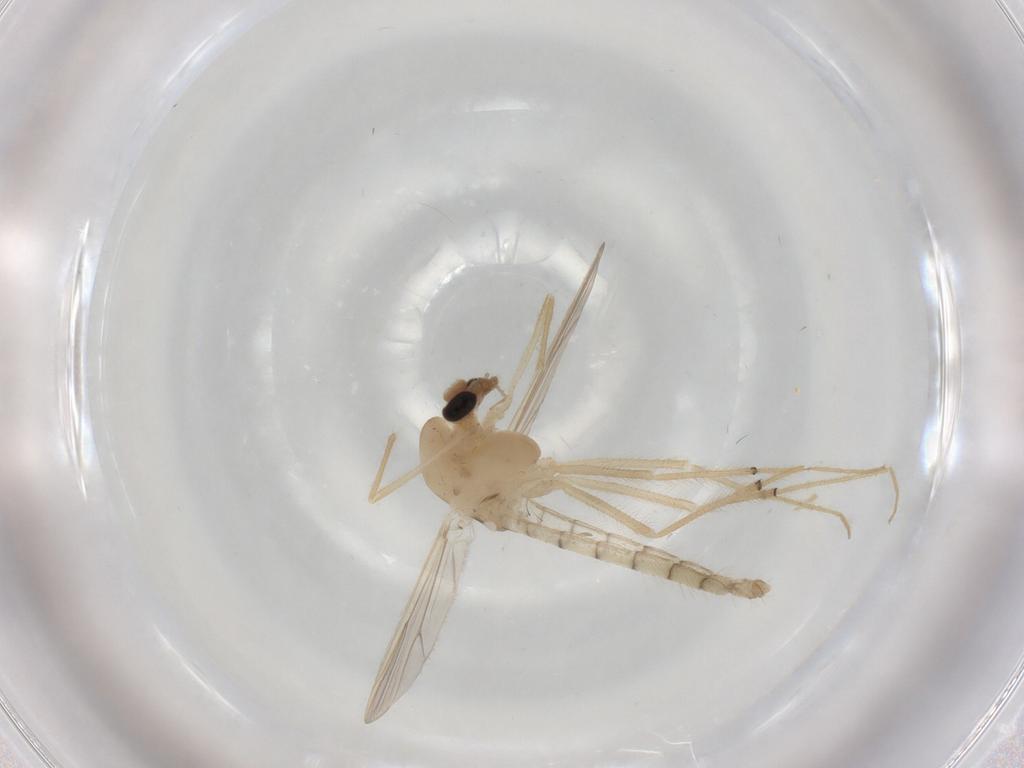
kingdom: Animalia
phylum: Arthropoda
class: Insecta
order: Diptera
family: Chironomidae
